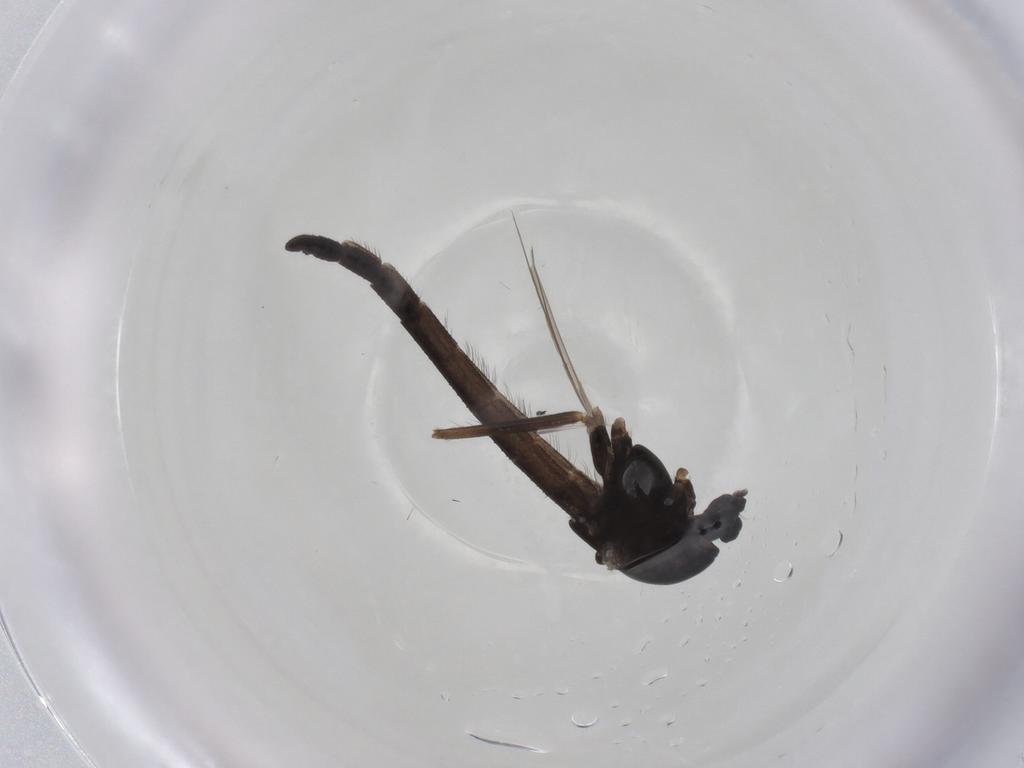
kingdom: Animalia
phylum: Arthropoda
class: Insecta
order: Diptera
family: Chironomidae
